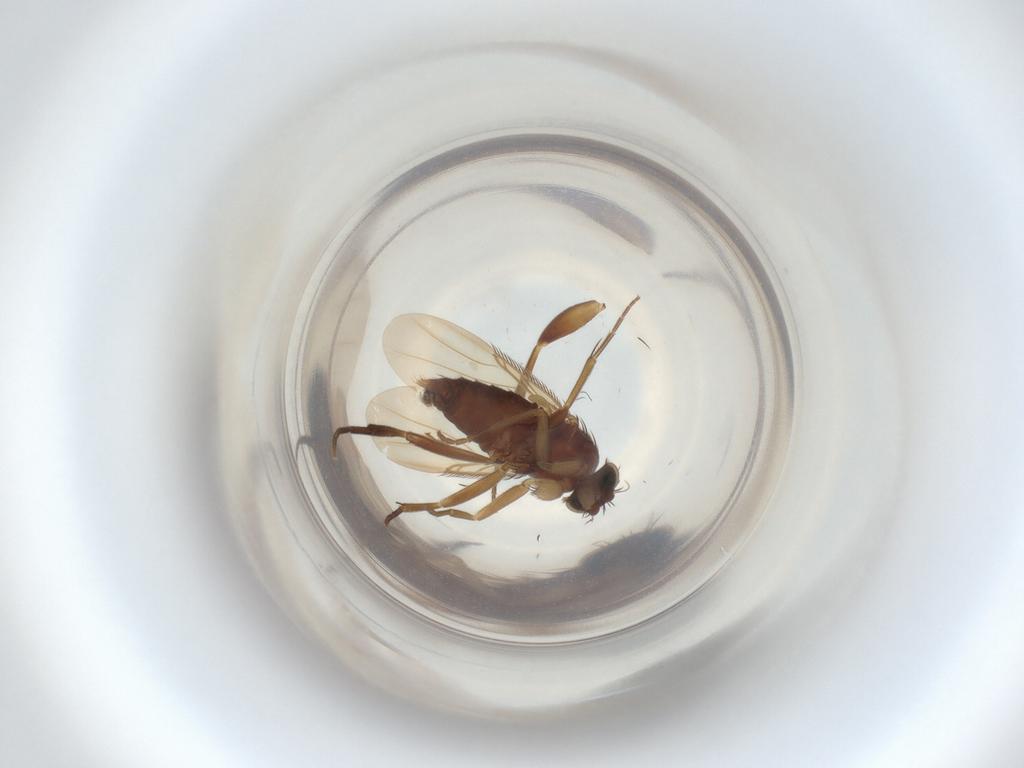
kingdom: Animalia
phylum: Arthropoda
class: Insecta
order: Diptera
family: Phoridae
